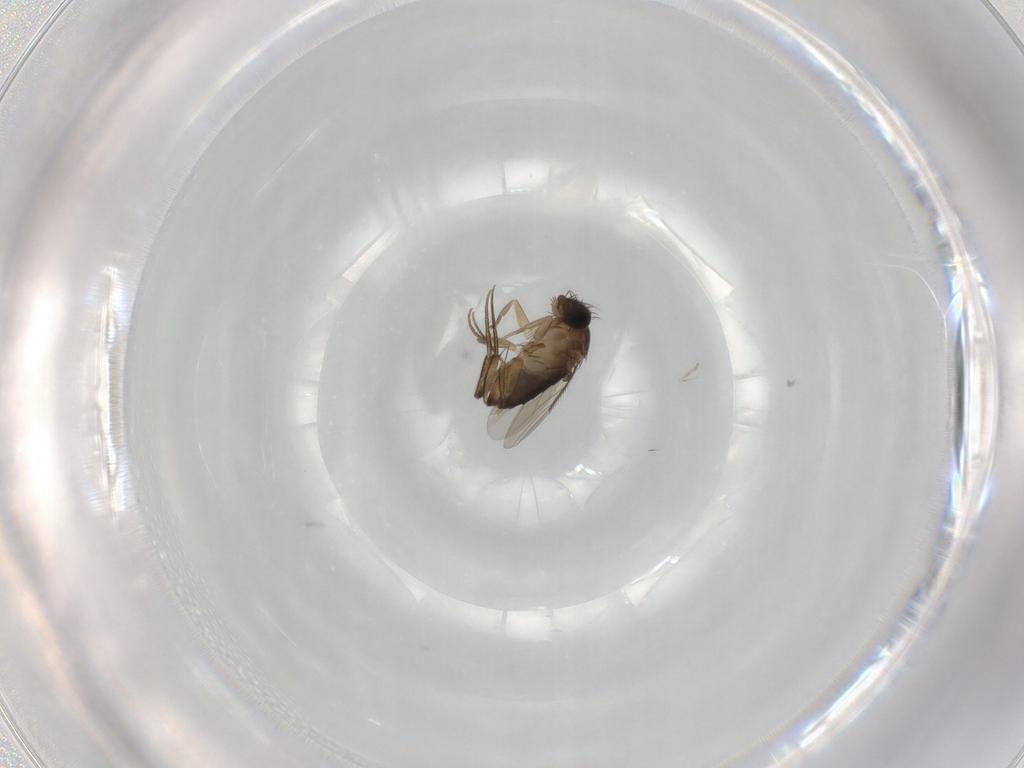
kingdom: Animalia
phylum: Arthropoda
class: Insecta
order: Diptera
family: Phoridae
